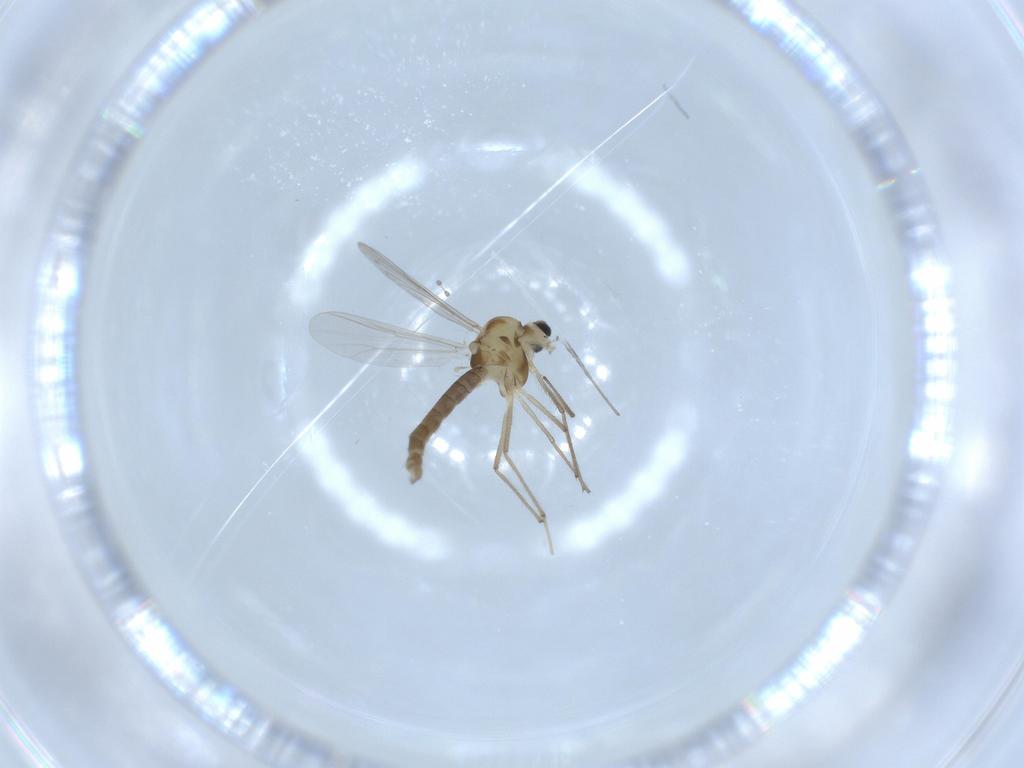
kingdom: Animalia
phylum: Arthropoda
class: Insecta
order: Diptera
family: Chironomidae
